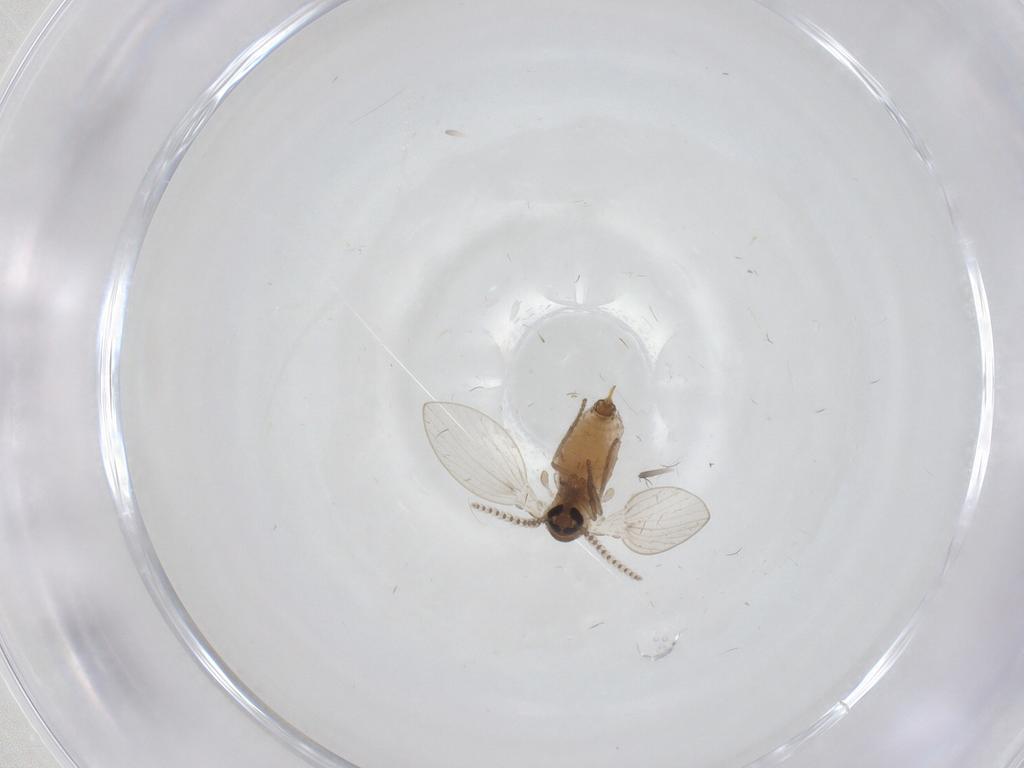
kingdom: Animalia
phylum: Arthropoda
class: Insecta
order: Diptera
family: Psychodidae
